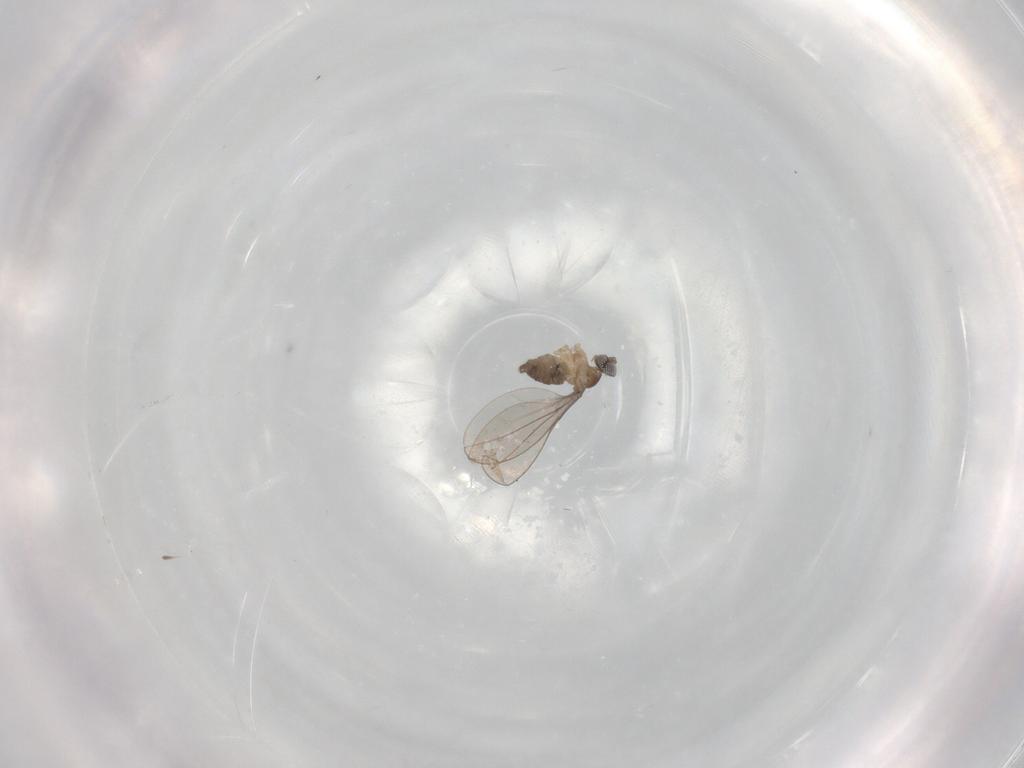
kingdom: Animalia
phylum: Arthropoda
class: Insecta
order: Diptera
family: Cecidomyiidae
